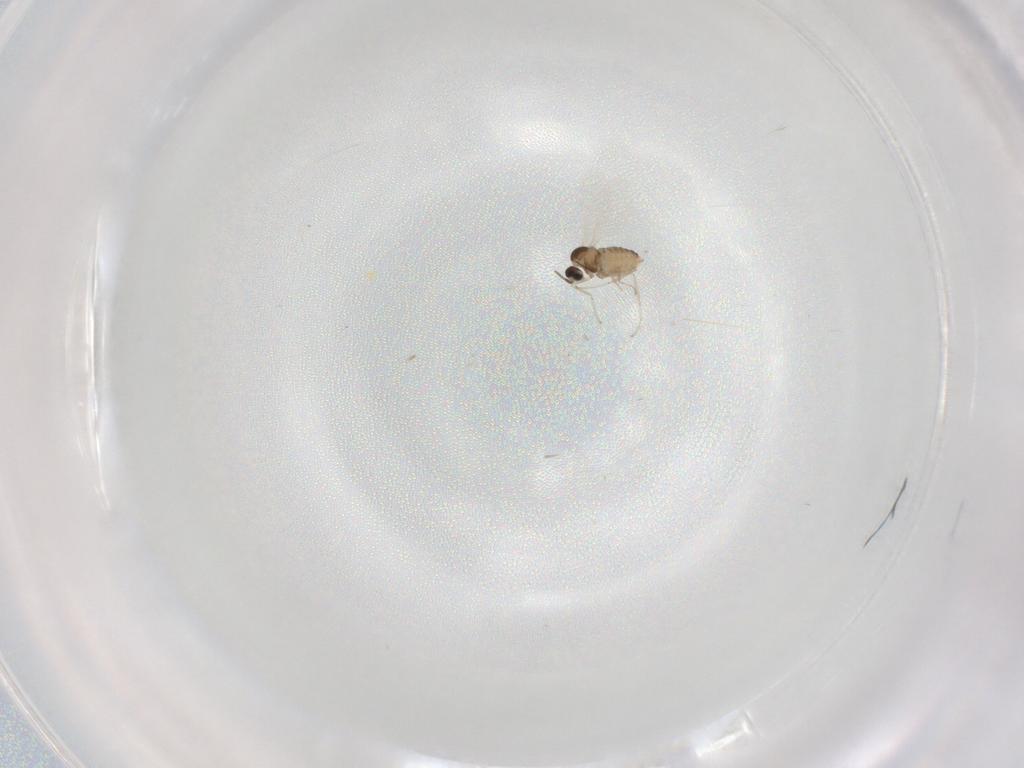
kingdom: Animalia
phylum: Arthropoda
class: Insecta
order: Diptera
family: Cecidomyiidae
